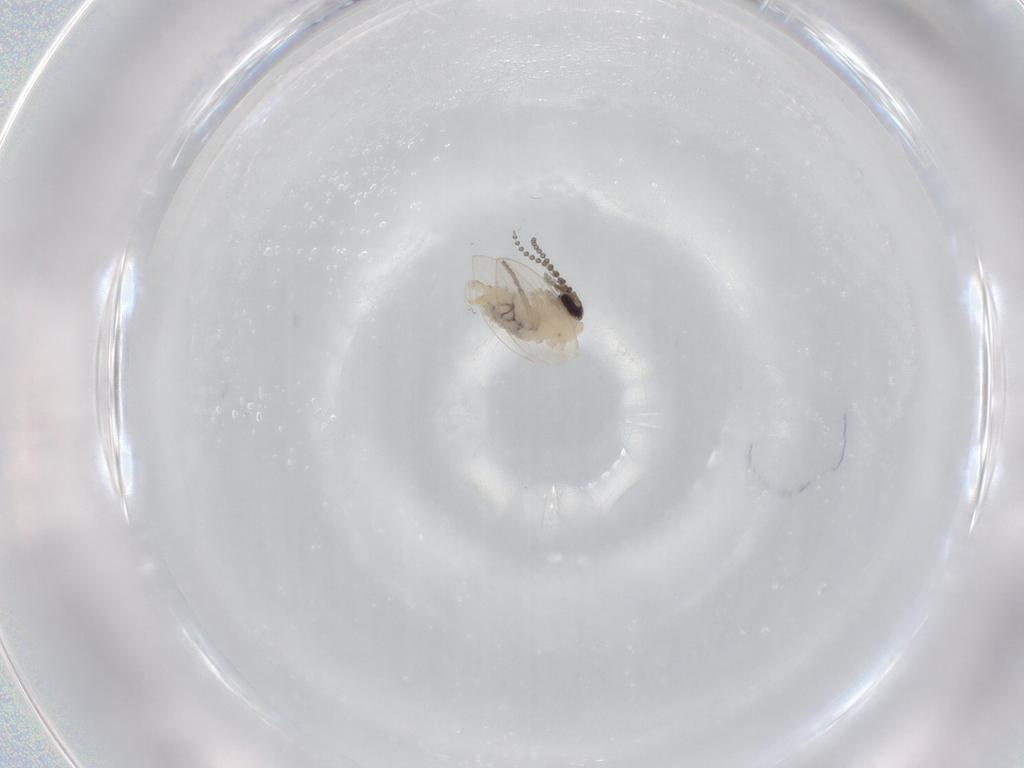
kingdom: Animalia
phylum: Arthropoda
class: Insecta
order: Diptera
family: Psychodidae
